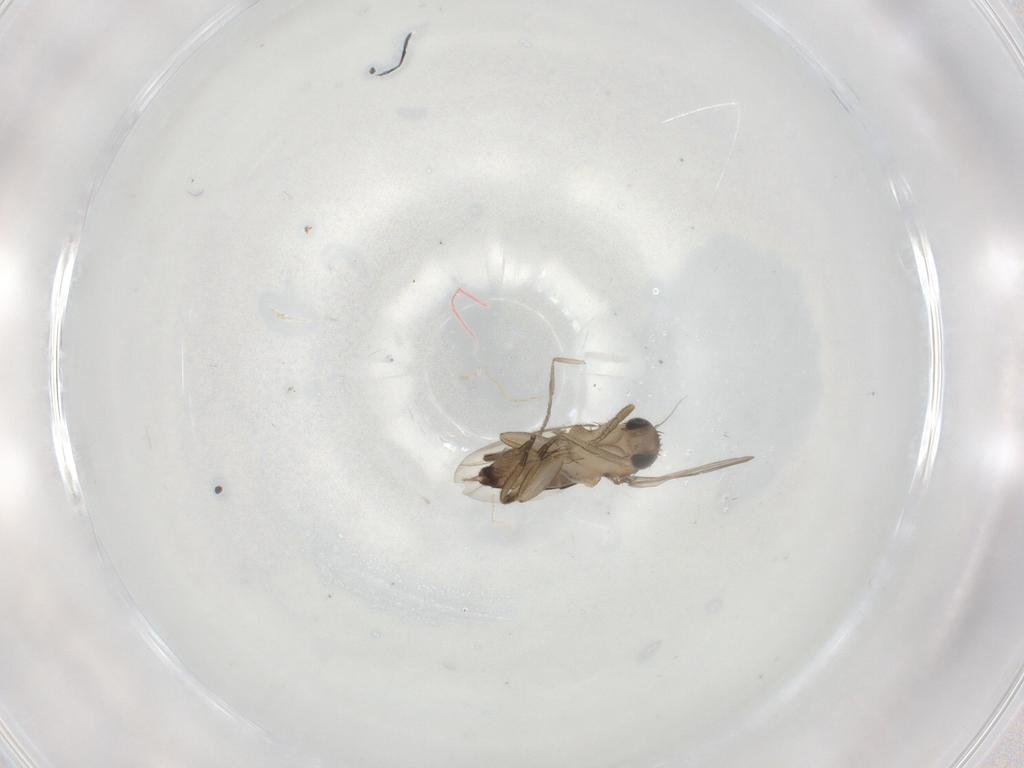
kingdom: Animalia
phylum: Arthropoda
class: Insecta
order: Diptera
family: Psychodidae
